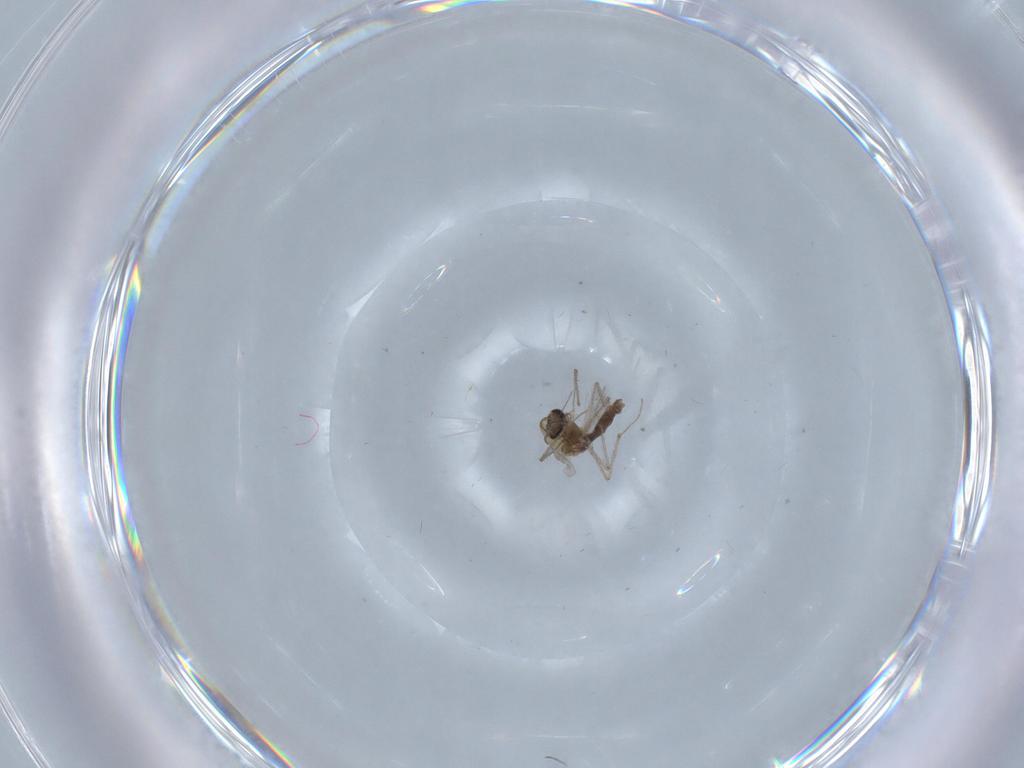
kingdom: Animalia
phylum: Arthropoda
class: Insecta
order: Diptera
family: Chironomidae
